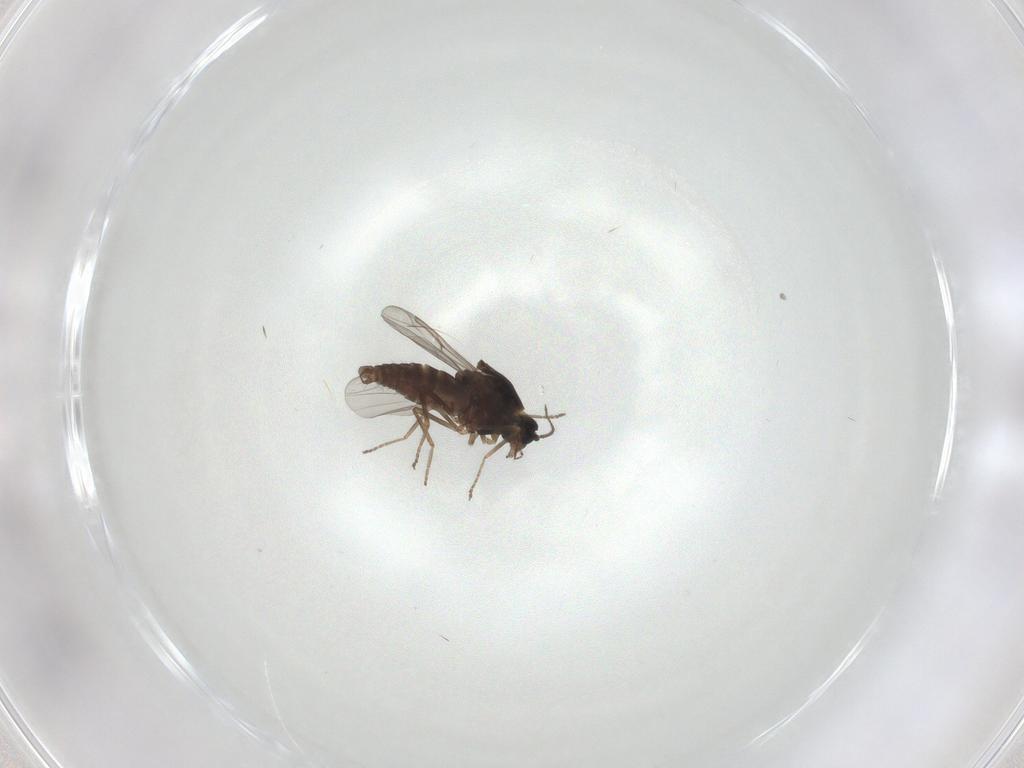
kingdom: Animalia
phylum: Arthropoda
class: Insecta
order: Diptera
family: Ceratopogonidae
